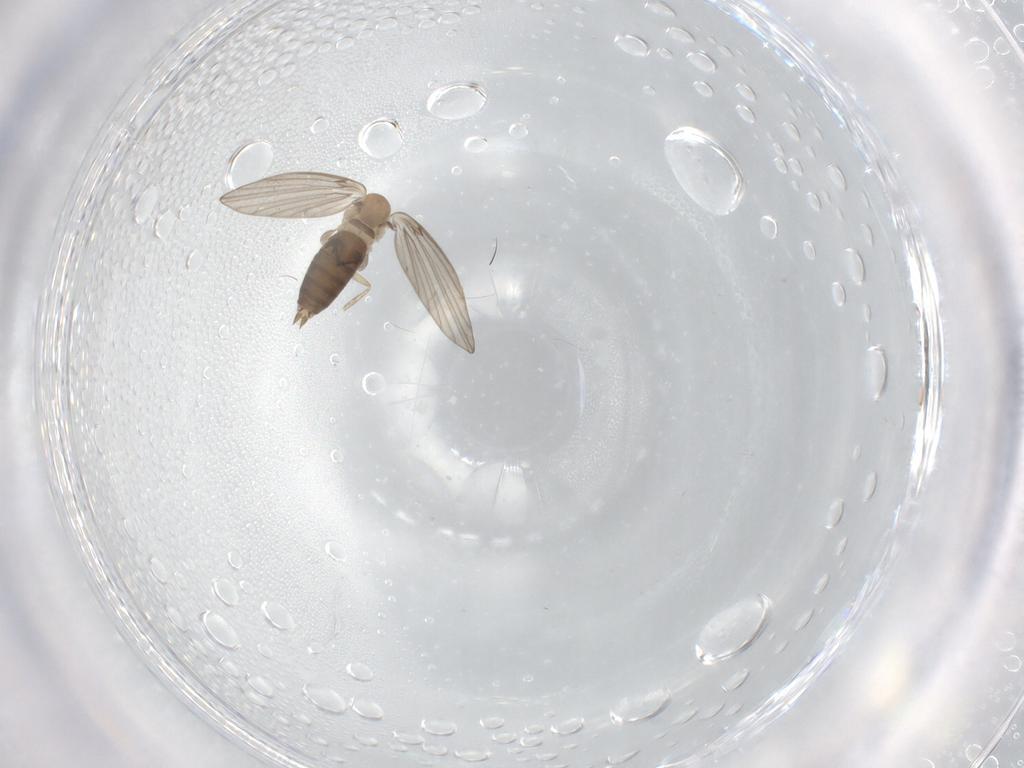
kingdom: Animalia
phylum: Arthropoda
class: Insecta
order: Diptera
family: Psychodidae
